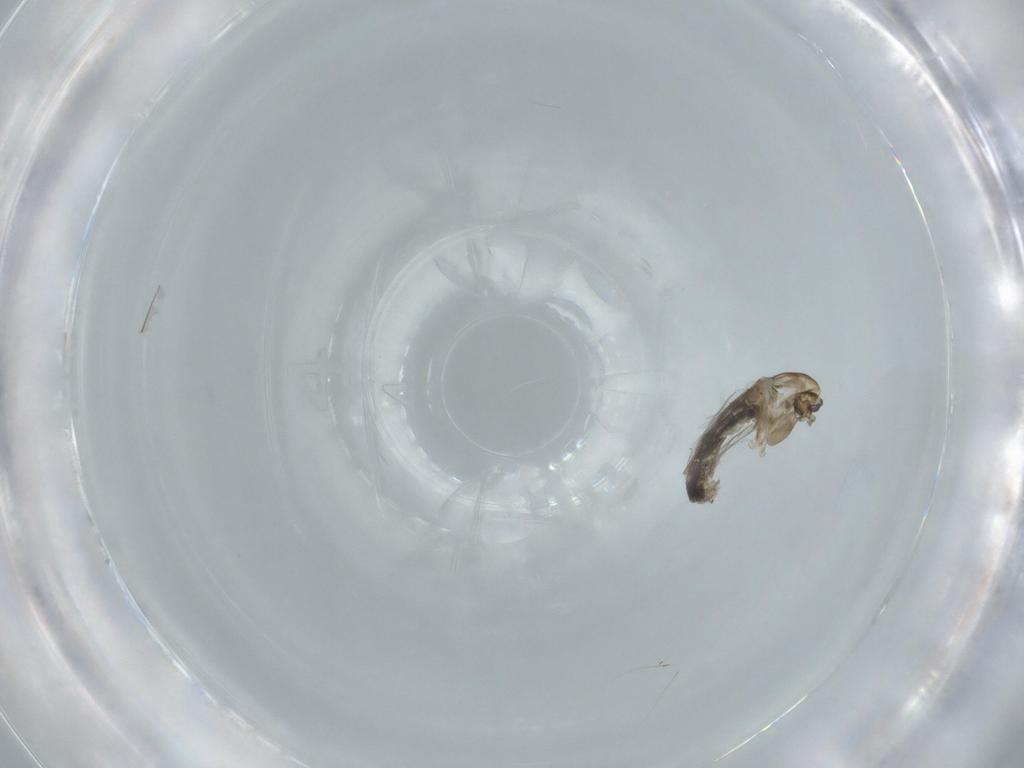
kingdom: Animalia
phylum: Arthropoda
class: Insecta
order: Diptera
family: Chironomidae
